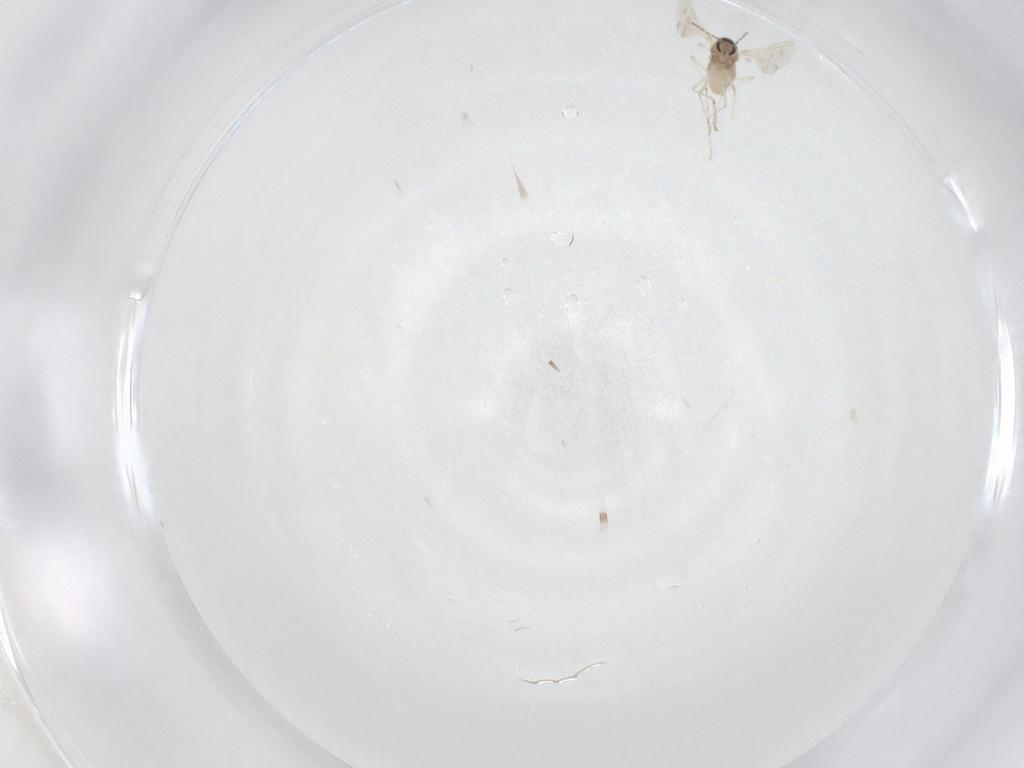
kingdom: Animalia
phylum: Arthropoda
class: Insecta
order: Diptera
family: Cecidomyiidae
